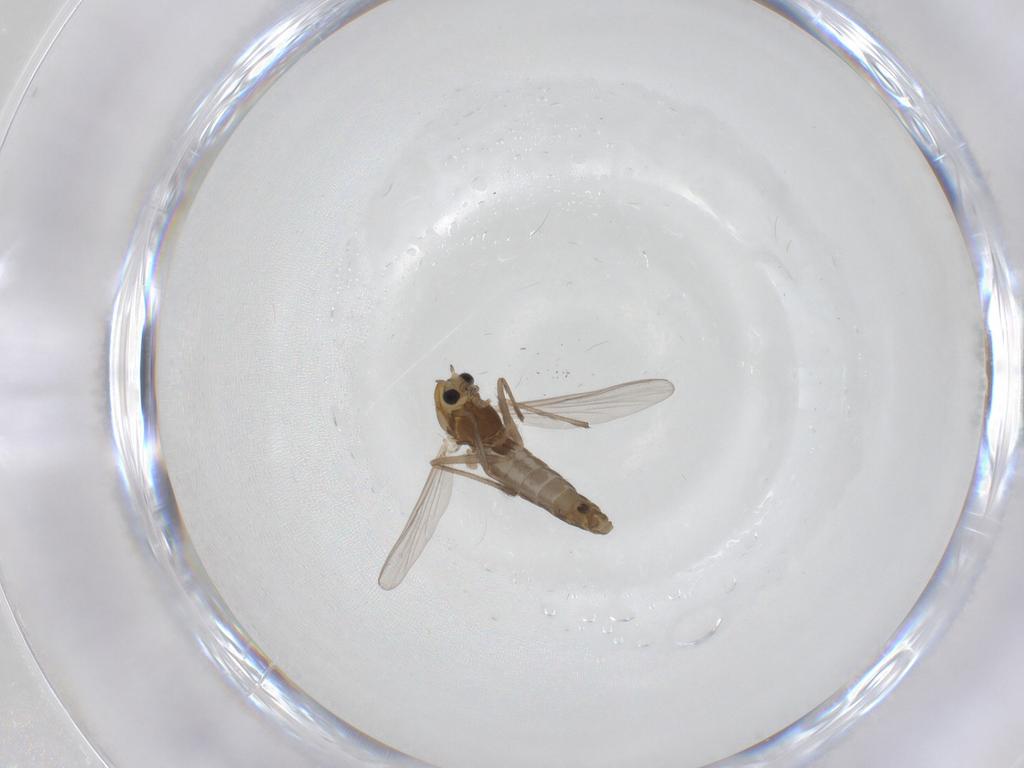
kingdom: Animalia
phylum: Arthropoda
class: Insecta
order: Diptera
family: Chironomidae
